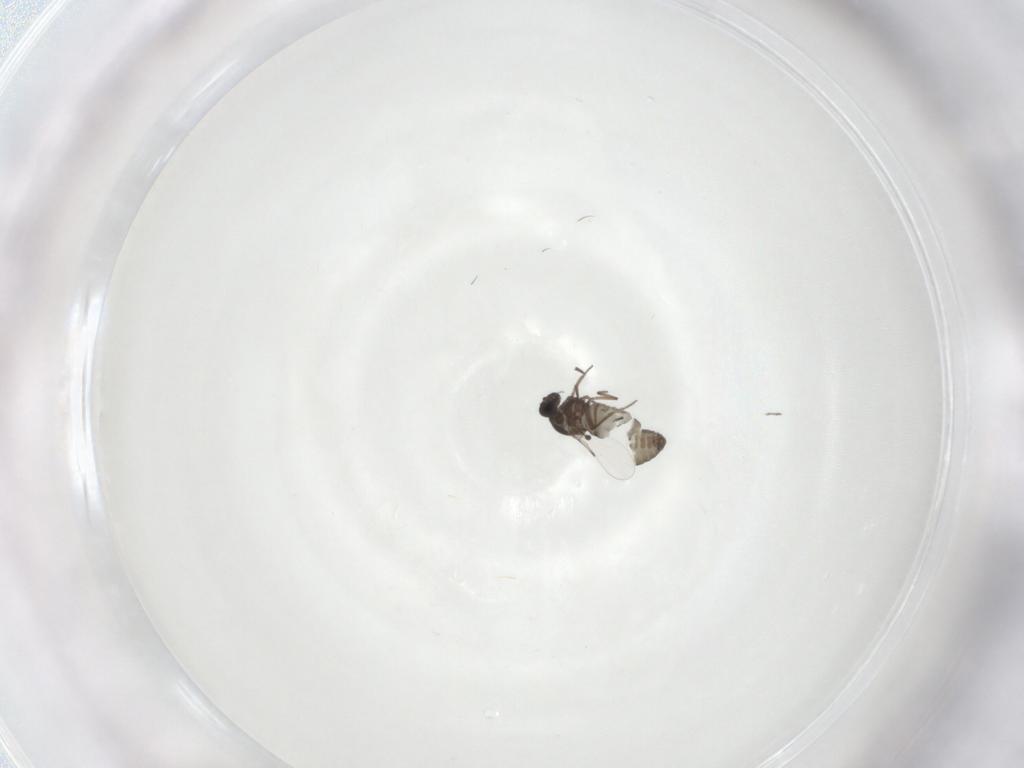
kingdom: Animalia
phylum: Arthropoda
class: Insecta
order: Diptera
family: Ceratopogonidae
